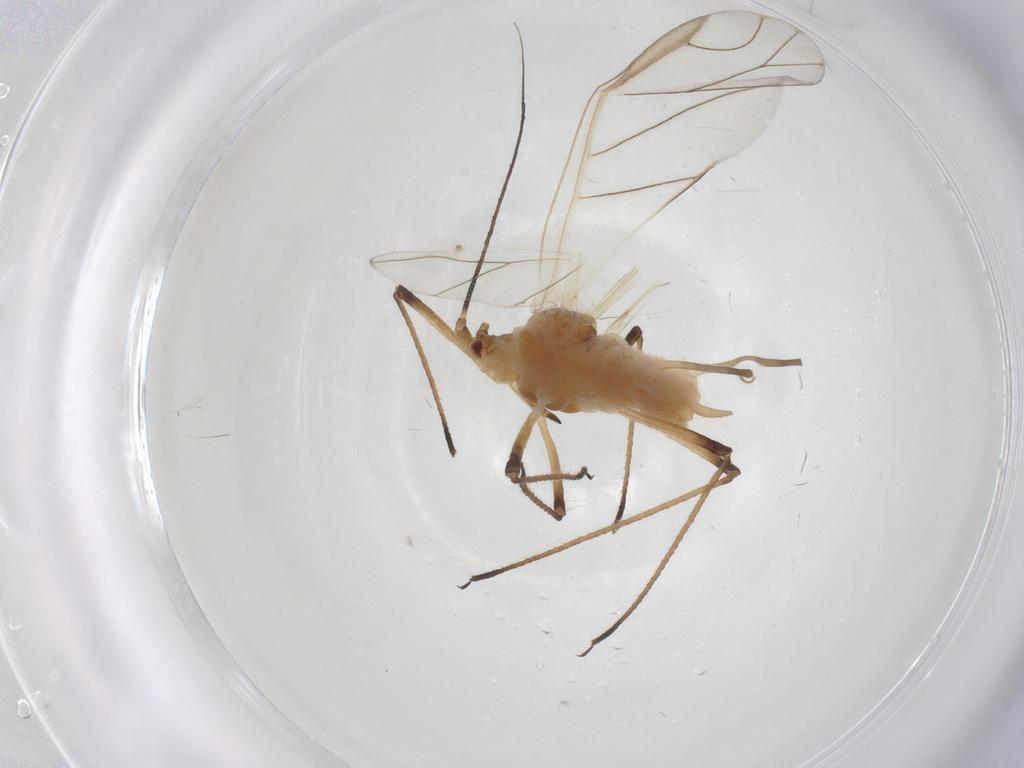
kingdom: Animalia
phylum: Arthropoda
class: Insecta
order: Hemiptera
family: Aphididae
